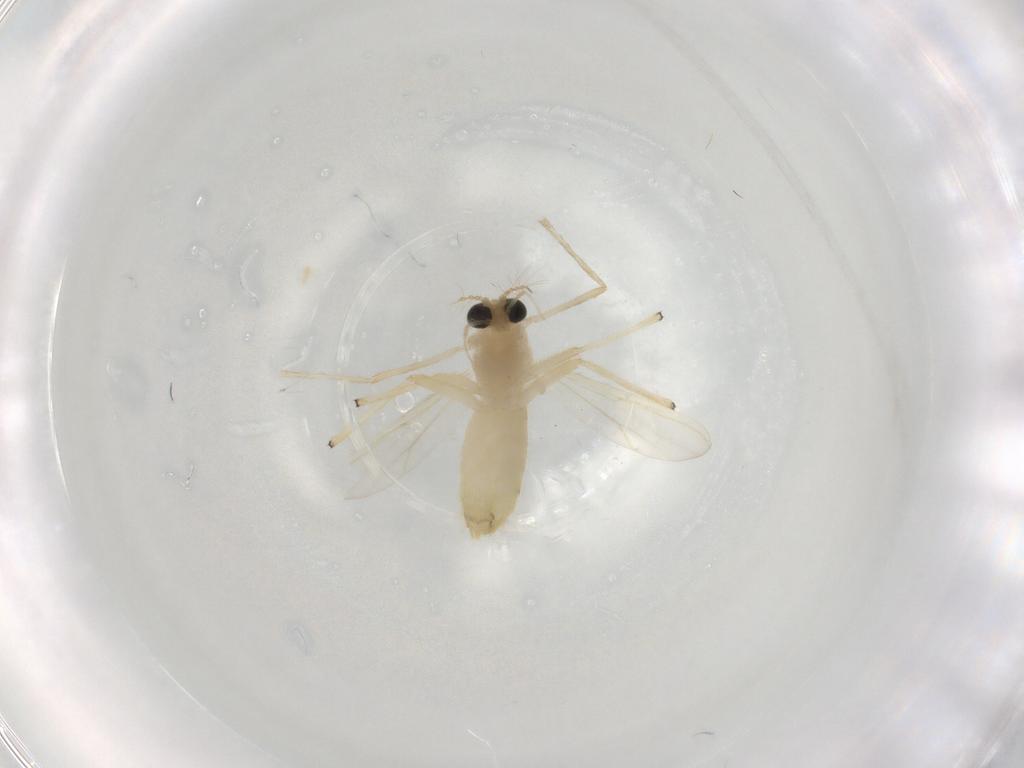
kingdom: Animalia
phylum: Arthropoda
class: Insecta
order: Diptera
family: Chironomidae
